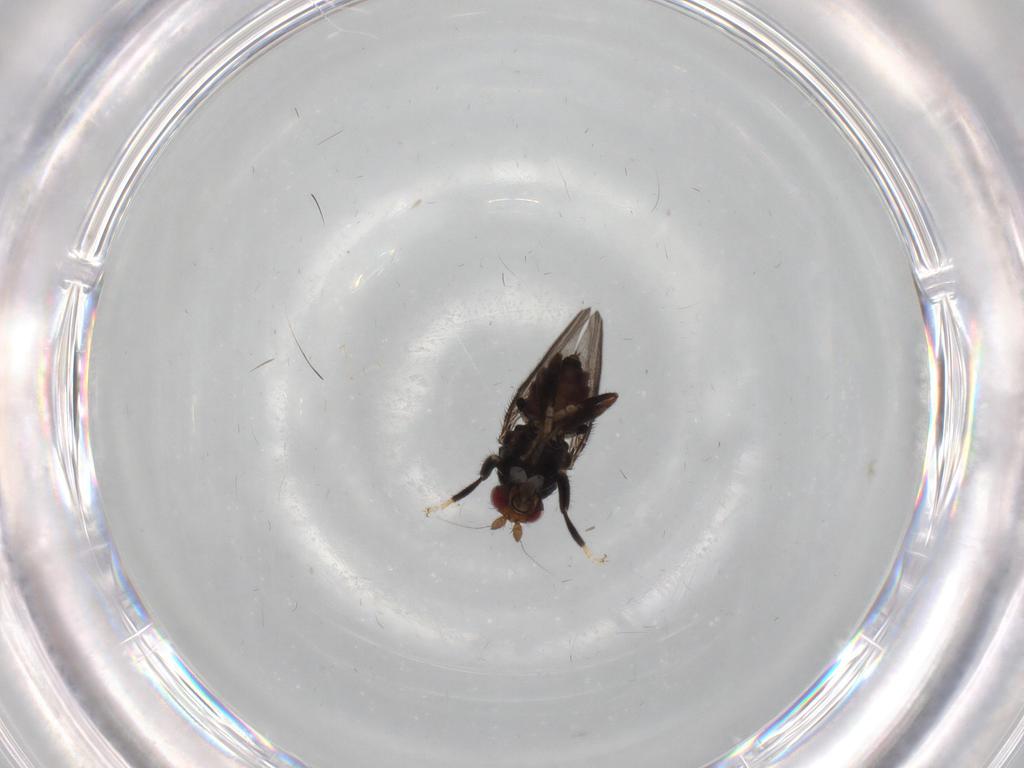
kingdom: Animalia
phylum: Arthropoda
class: Insecta
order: Diptera
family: Sphaeroceridae
